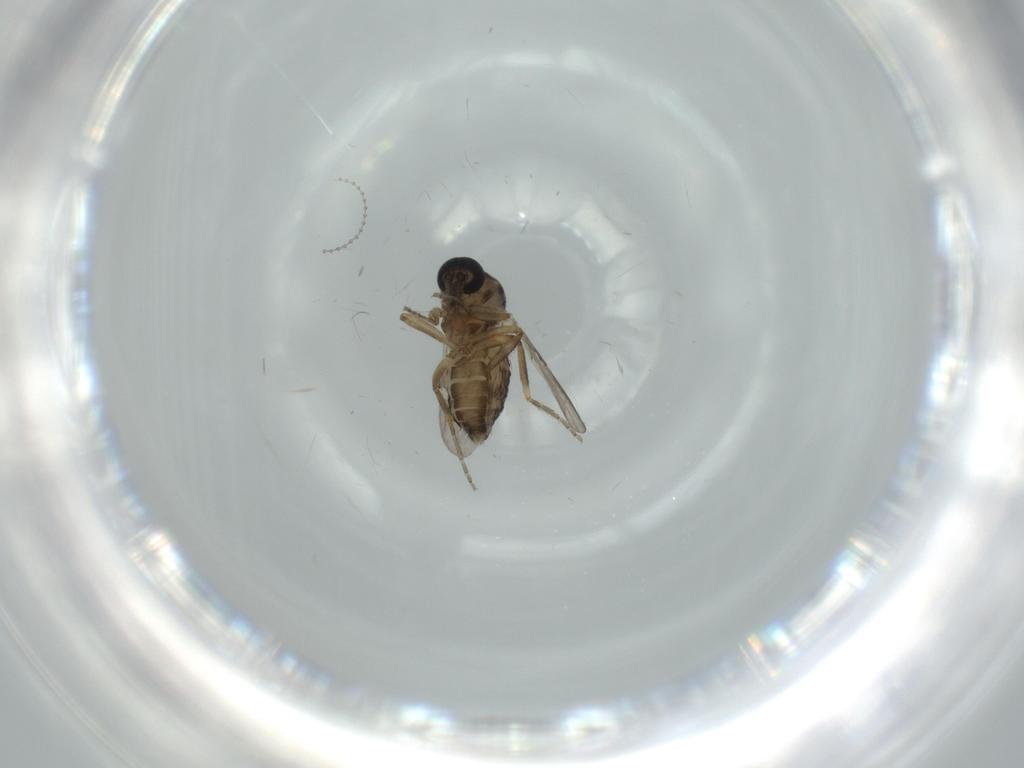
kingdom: Animalia
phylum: Arthropoda
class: Insecta
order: Diptera
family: Ceratopogonidae
